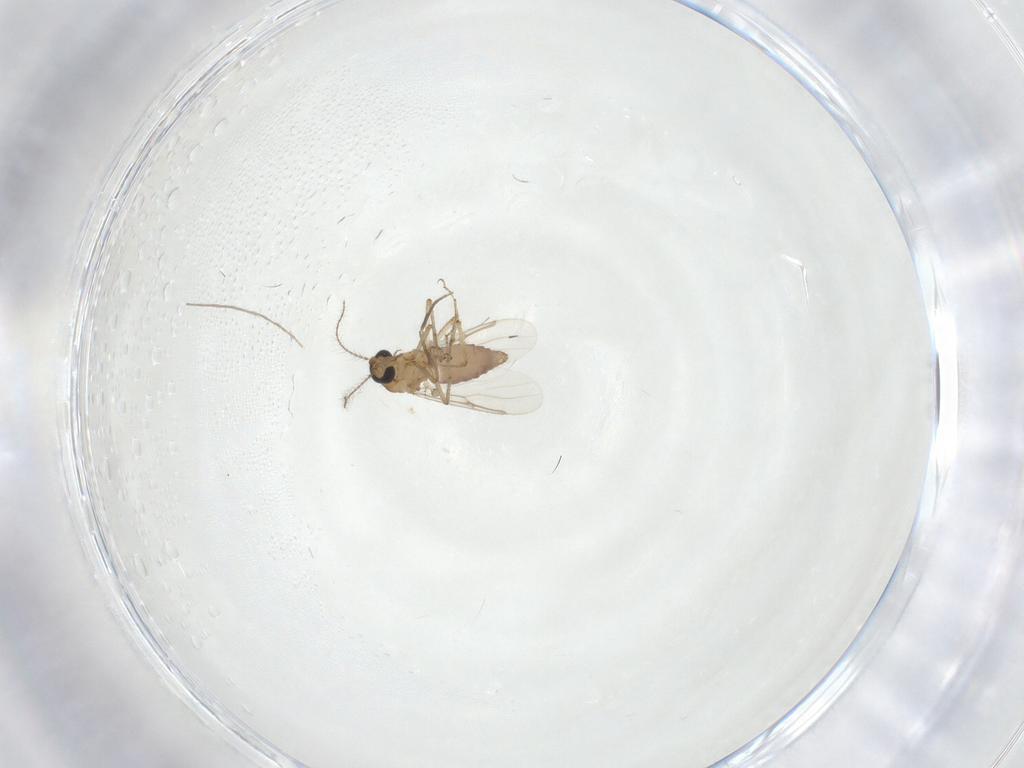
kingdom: Animalia
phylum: Arthropoda
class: Insecta
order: Diptera
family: Chironomidae
